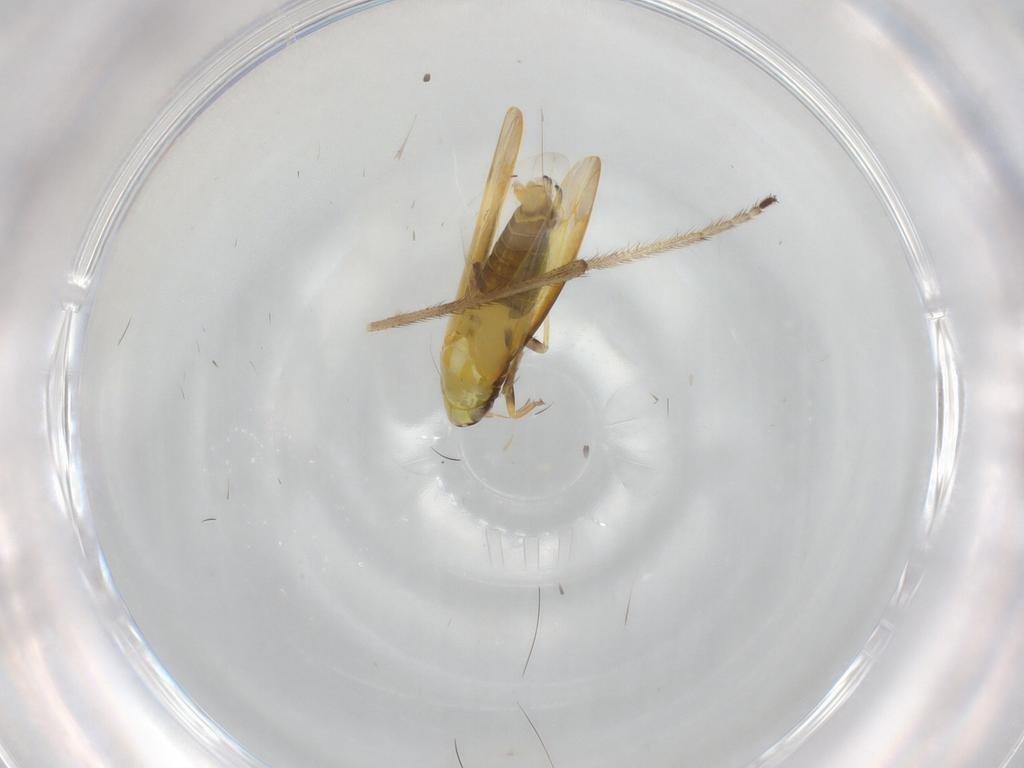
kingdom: Animalia
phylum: Arthropoda
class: Insecta
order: Hemiptera
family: Cicadellidae
